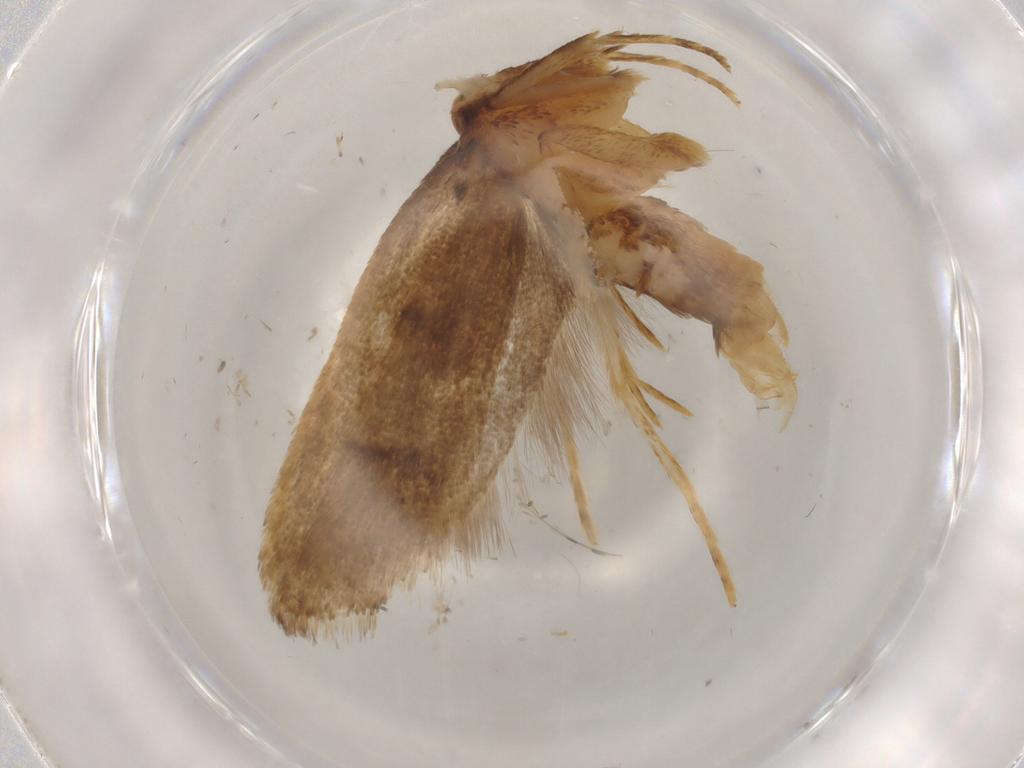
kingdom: Animalia
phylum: Arthropoda
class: Insecta
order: Lepidoptera
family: Lecithoceridae
